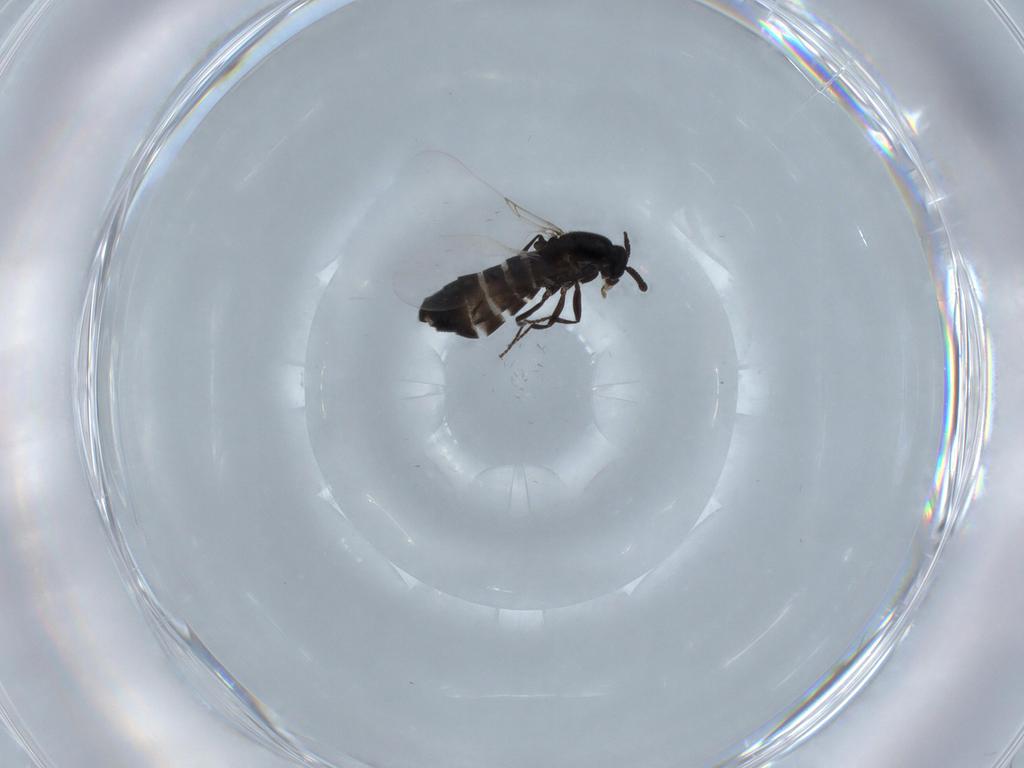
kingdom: Animalia
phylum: Arthropoda
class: Insecta
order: Diptera
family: Scatopsidae
